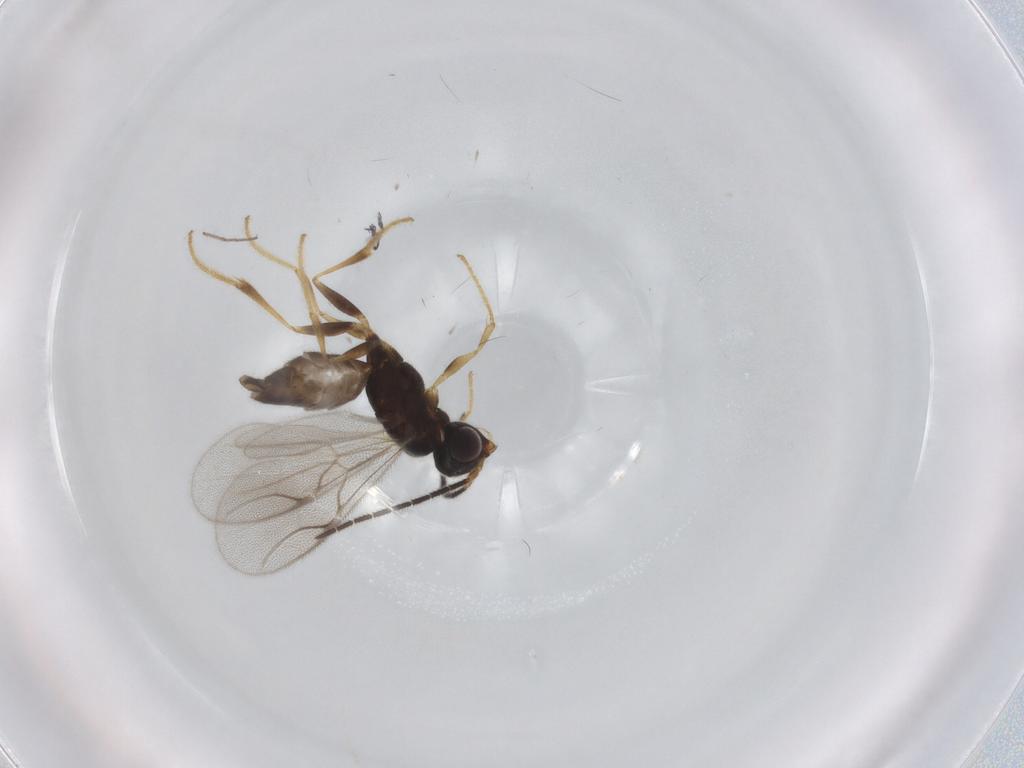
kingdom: Animalia
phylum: Arthropoda
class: Insecta
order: Hymenoptera
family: Dryinidae
